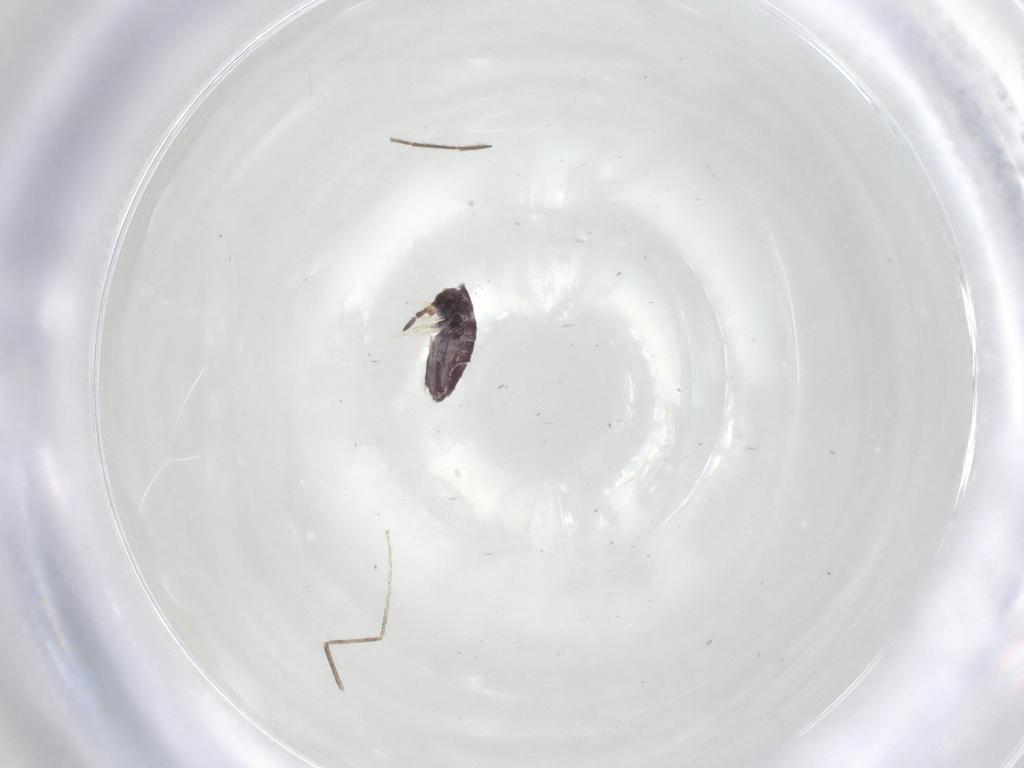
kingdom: Animalia
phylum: Arthropoda
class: Collembola
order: Entomobryomorpha
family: Entomobryidae
